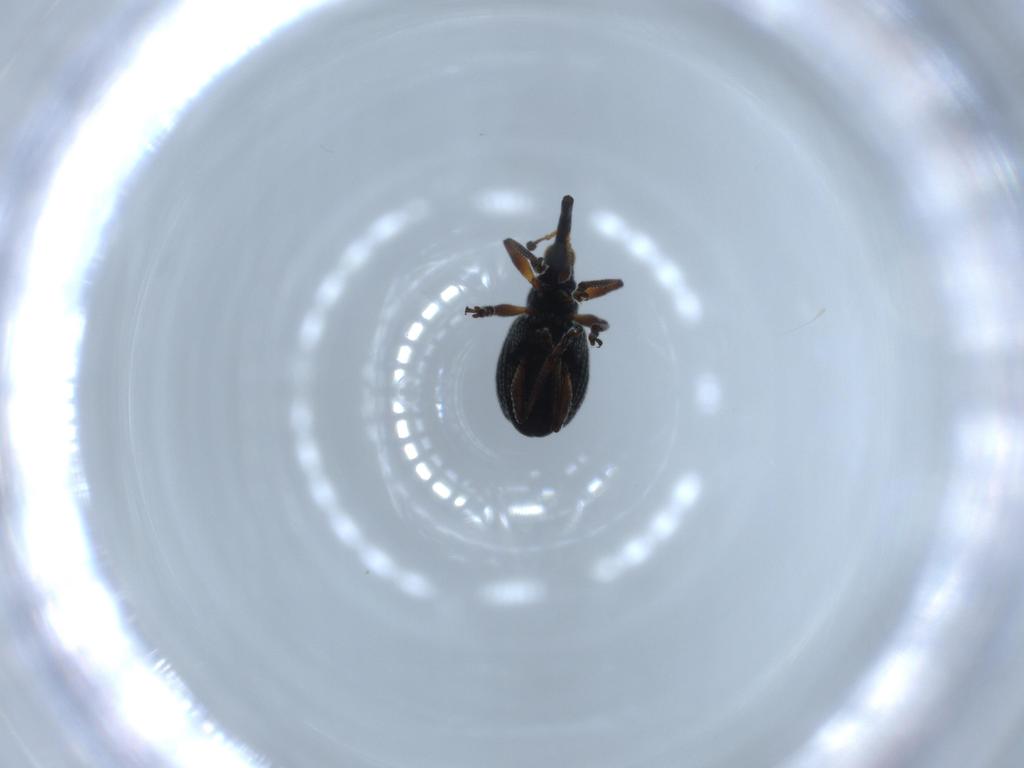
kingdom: Animalia
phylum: Arthropoda
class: Insecta
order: Coleoptera
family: Brentidae
